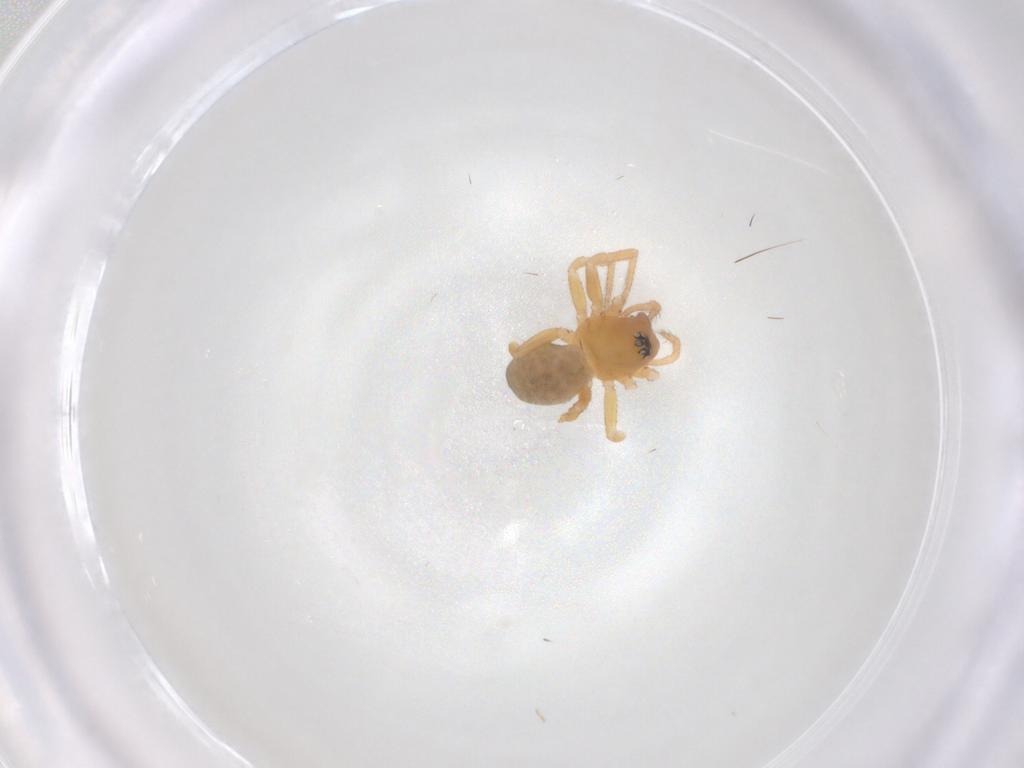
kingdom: Animalia
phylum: Arthropoda
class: Arachnida
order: Araneae
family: Linyphiidae
